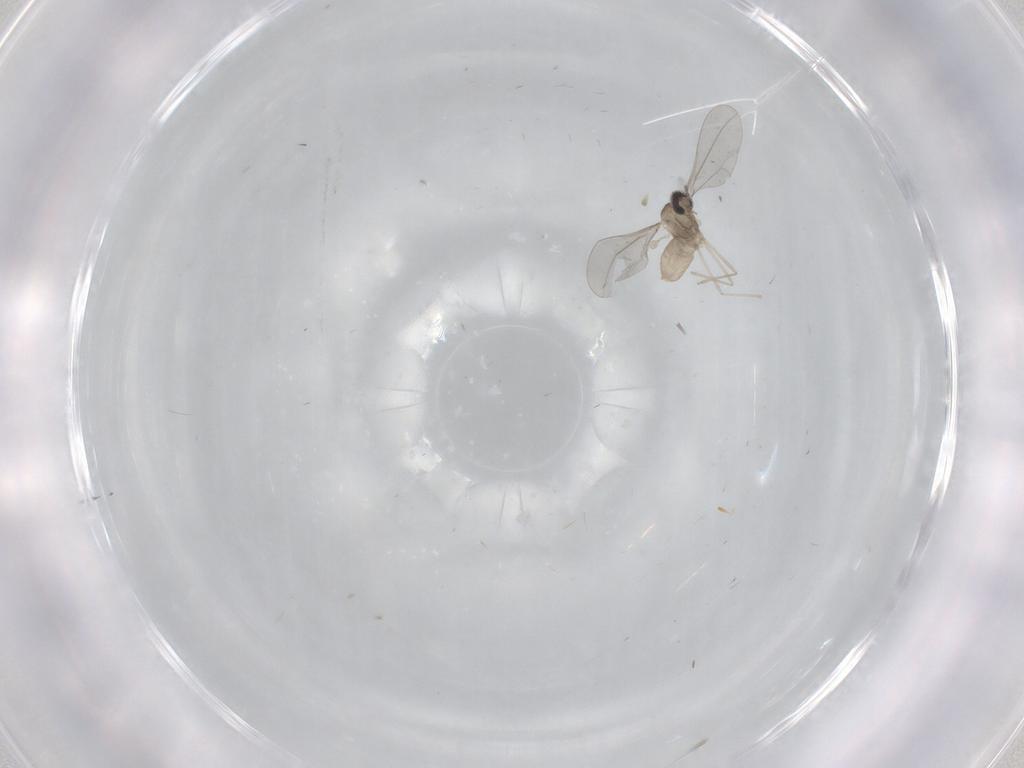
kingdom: Animalia
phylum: Arthropoda
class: Insecta
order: Diptera
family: Cecidomyiidae
